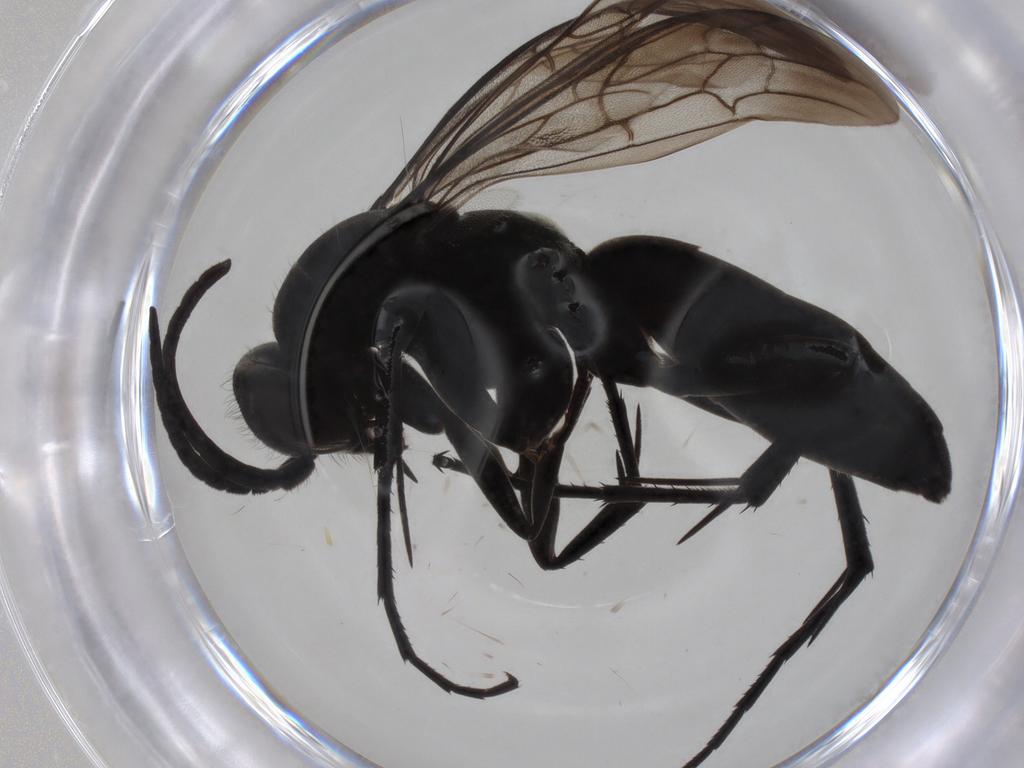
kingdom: Animalia
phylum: Arthropoda
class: Insecta
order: Hymenoptera
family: Pompilidae
